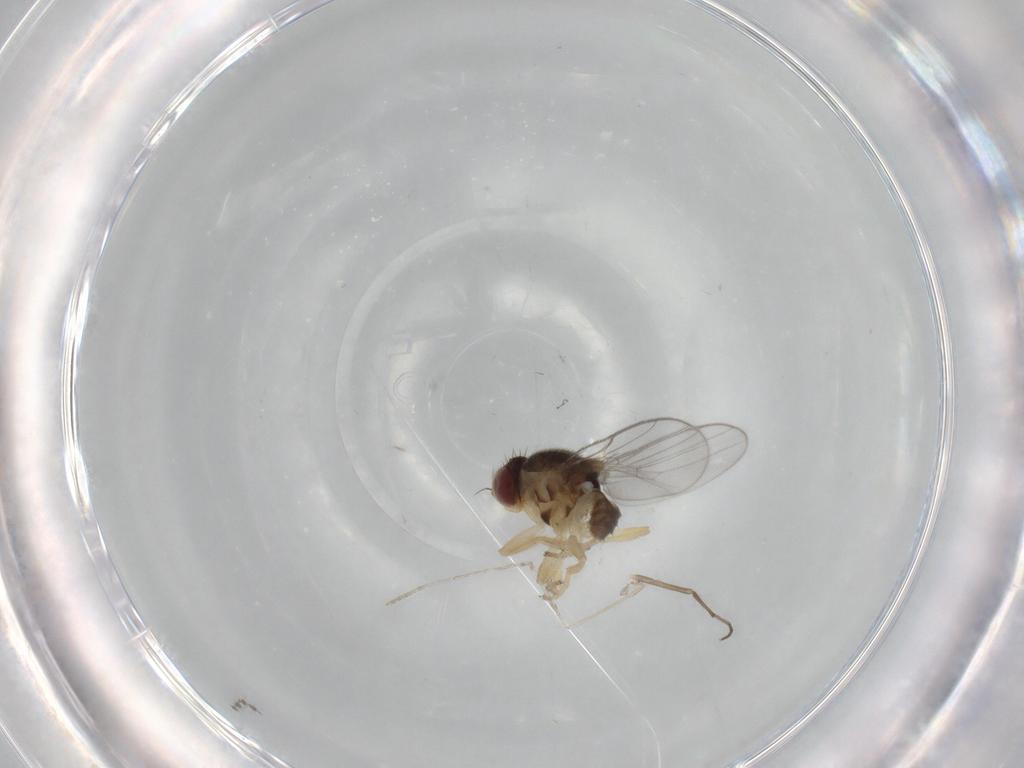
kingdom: Animalia
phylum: Arthropoda
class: Insecta
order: Diptera
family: Chloropidae
